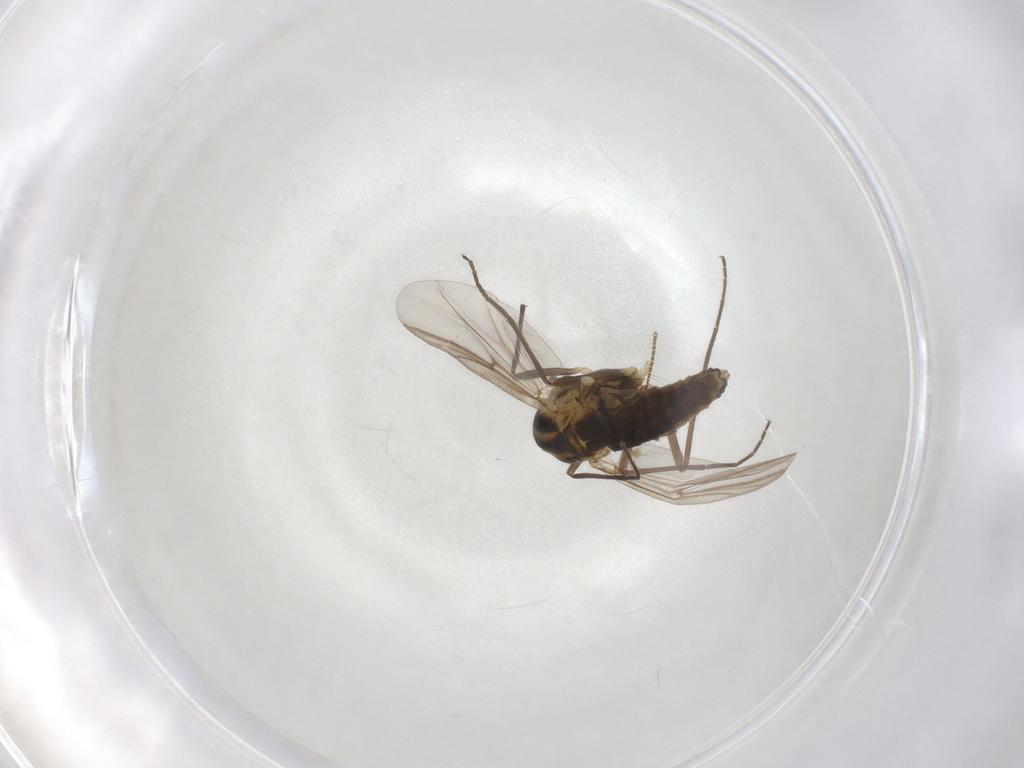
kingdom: Animalia
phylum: Arthropoda
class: Insecta
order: Diptera
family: Chironomidae
